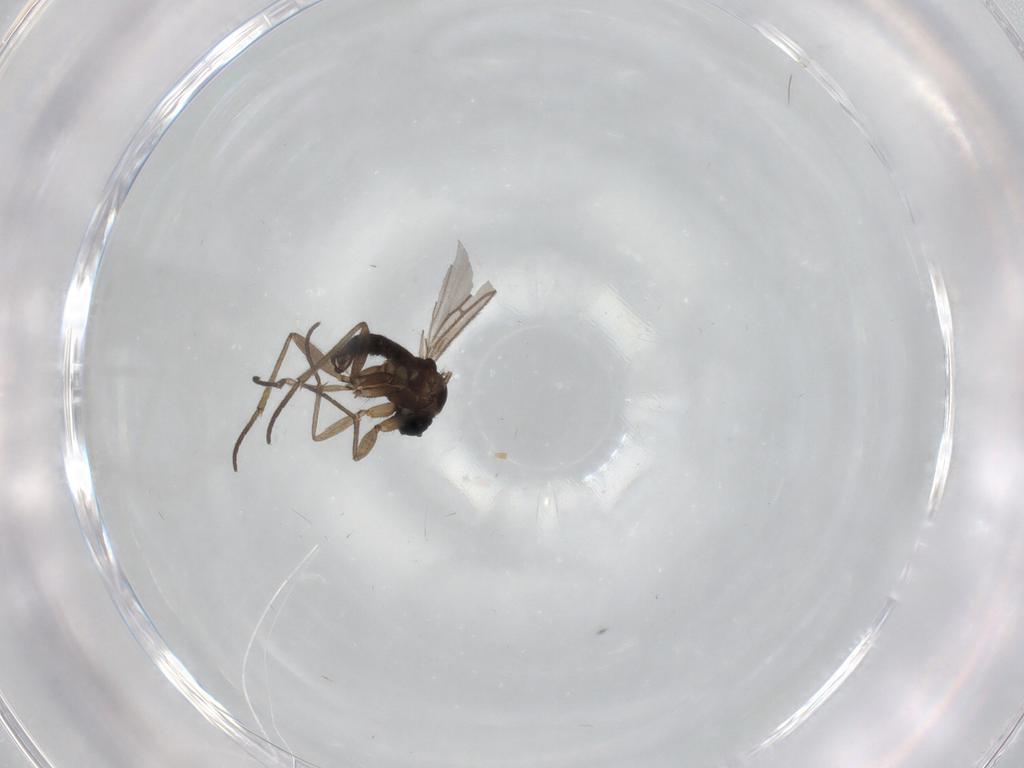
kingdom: Animalia
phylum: Arthropoda
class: Insecta
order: Diptera
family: Sciaridae
